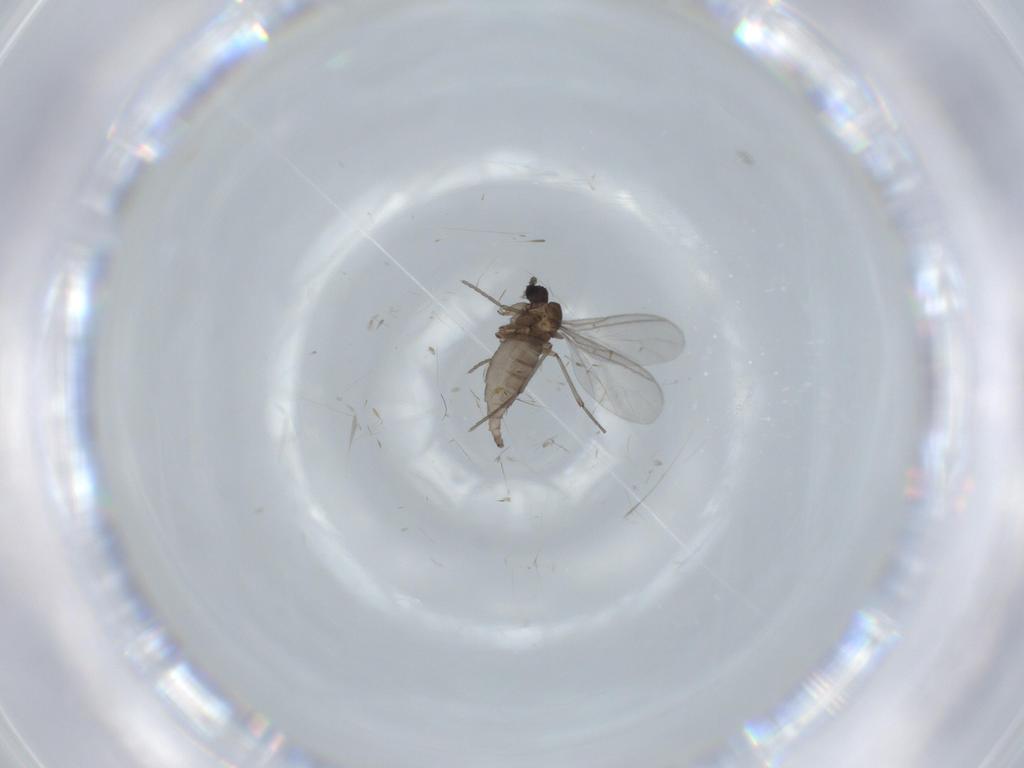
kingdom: Animalia
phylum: Arthropoda
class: Insecta
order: Diptera
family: Sciaridae
